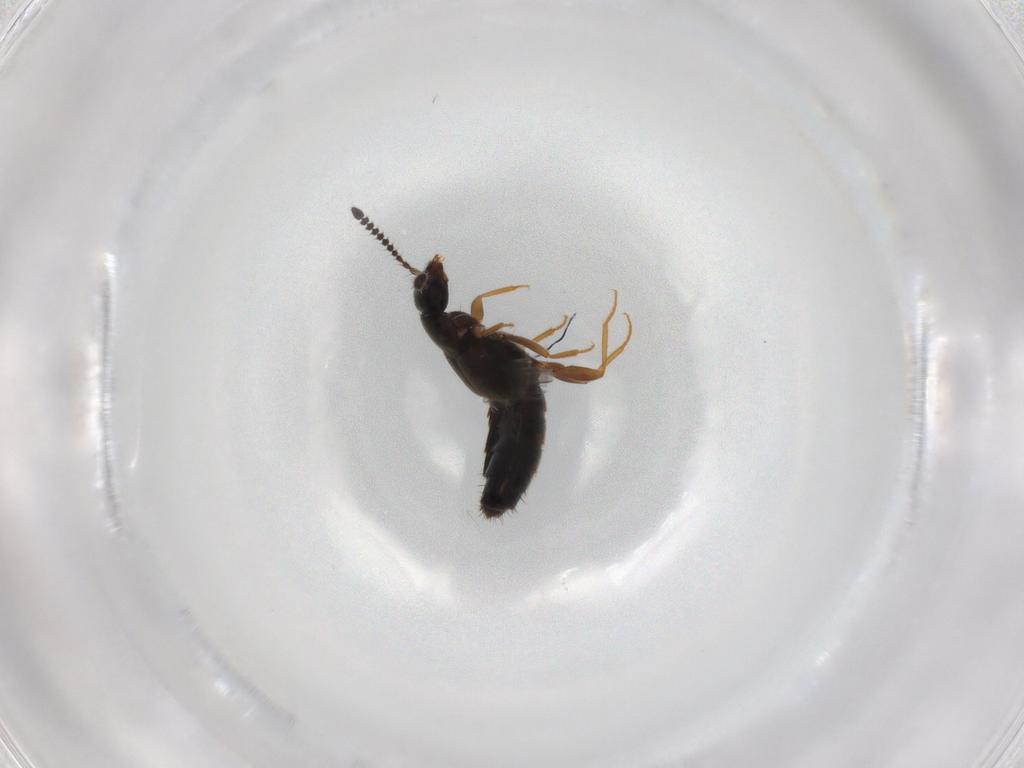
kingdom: Animalia
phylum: Arthropoda
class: Insecta
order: Coleoptera
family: Staphylinidae
